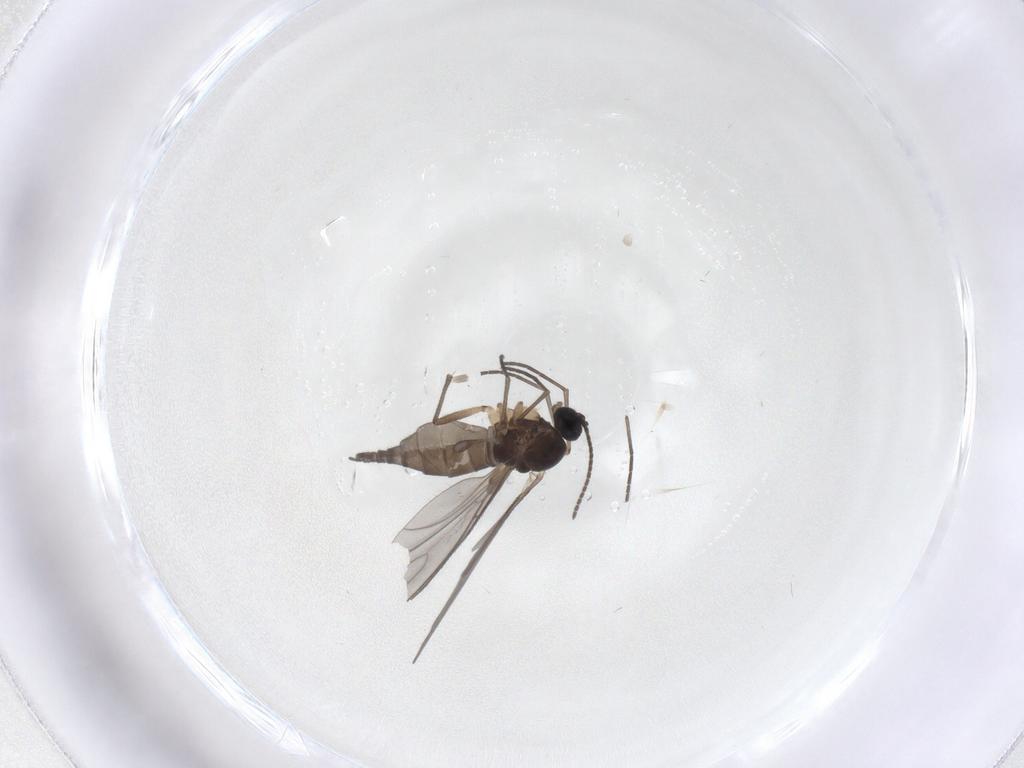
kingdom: Animalia
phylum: Arthropoda
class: Insecta
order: Diptera
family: Sciaridae
